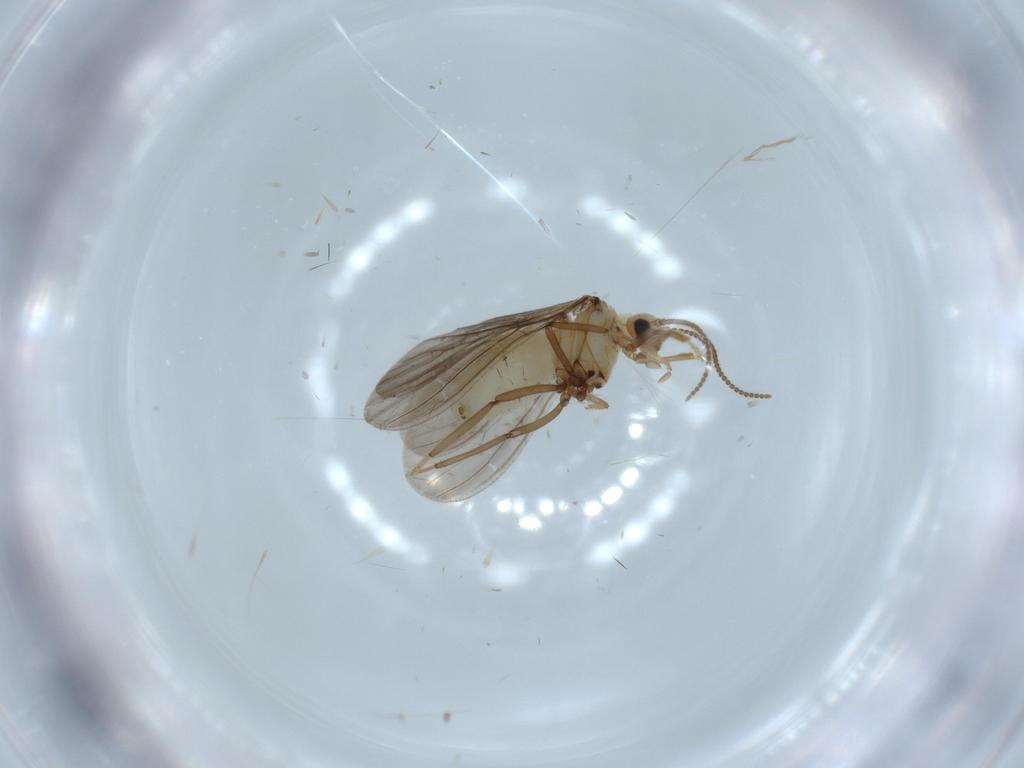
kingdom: Animalia
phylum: Arthropoda
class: Insecta
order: Neuroptera
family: Coniopterygidae
